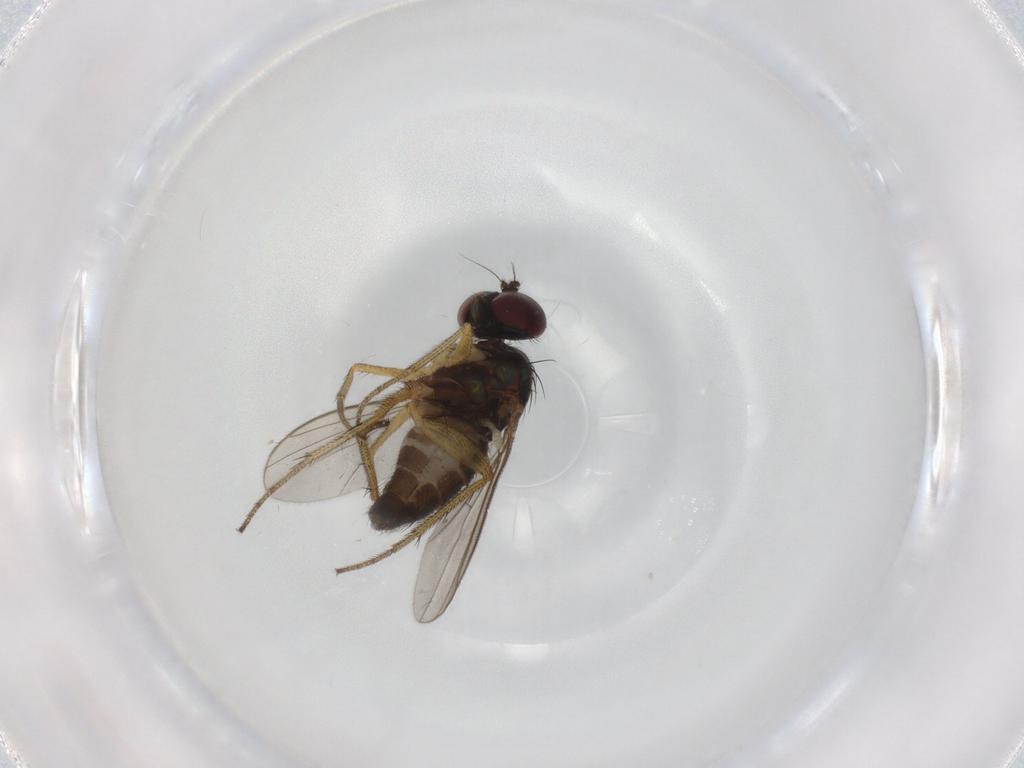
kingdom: Animalia
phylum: Arthropoda
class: Insecta
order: Diptera
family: Dolichopodidae
